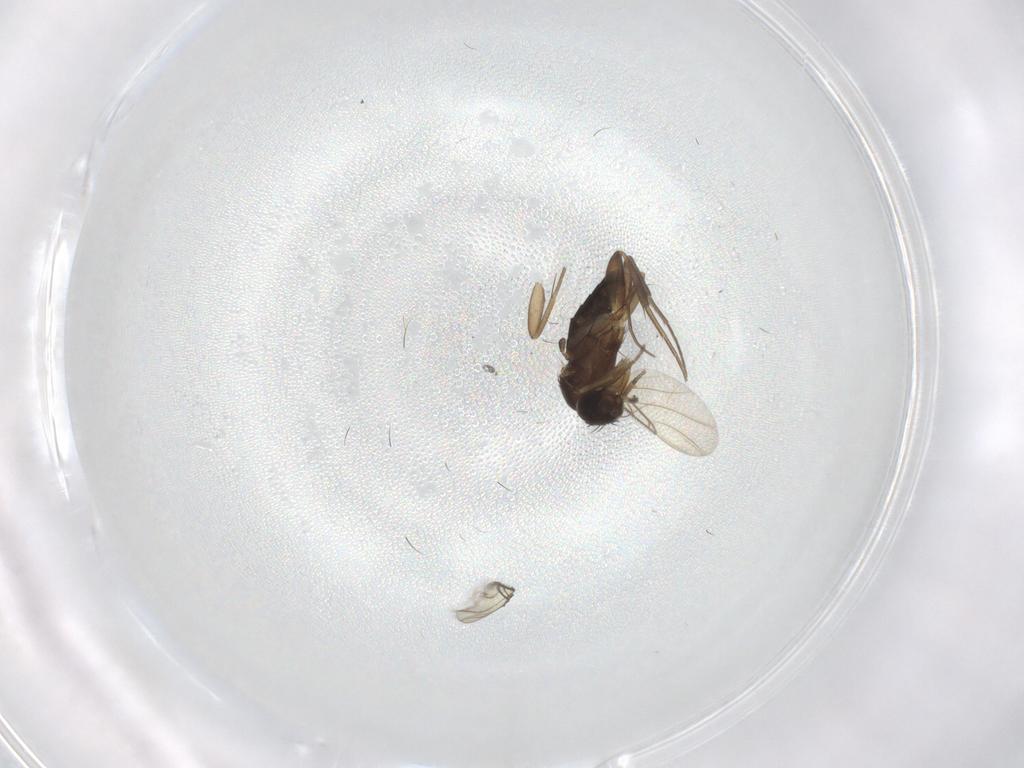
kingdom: Animalia
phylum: Arthropoda
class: Insecta
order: Diptera
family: Phoridae
